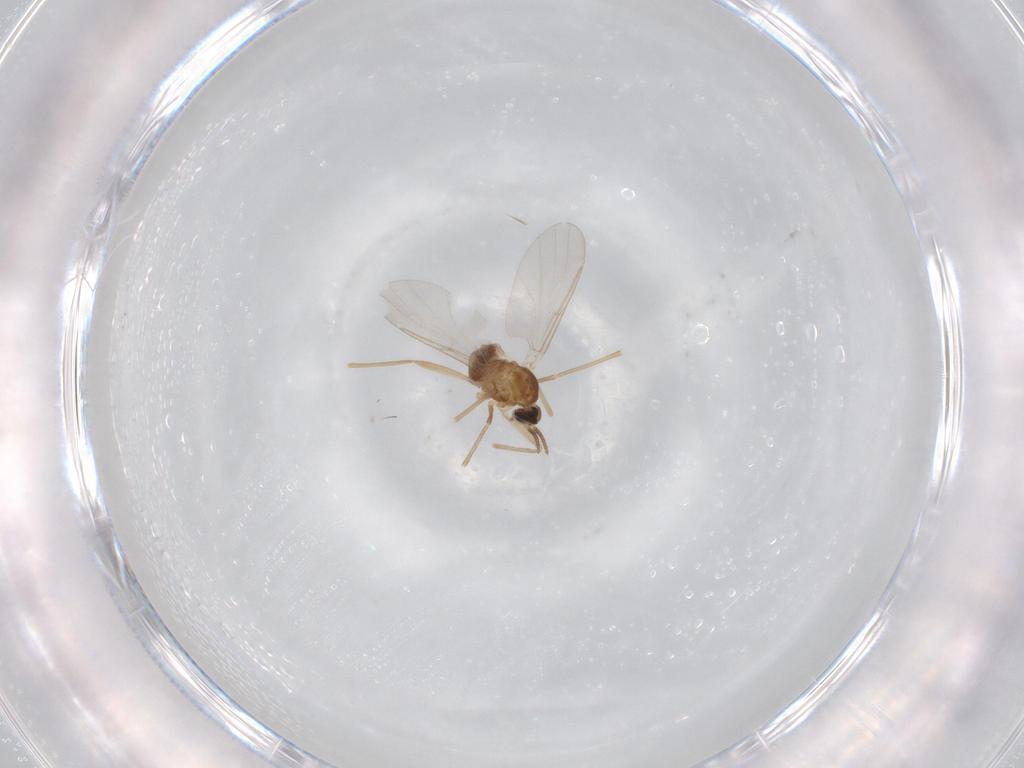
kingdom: Animalia
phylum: Arthropoda
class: Insecta
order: Diptera
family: Dolichopodidae
